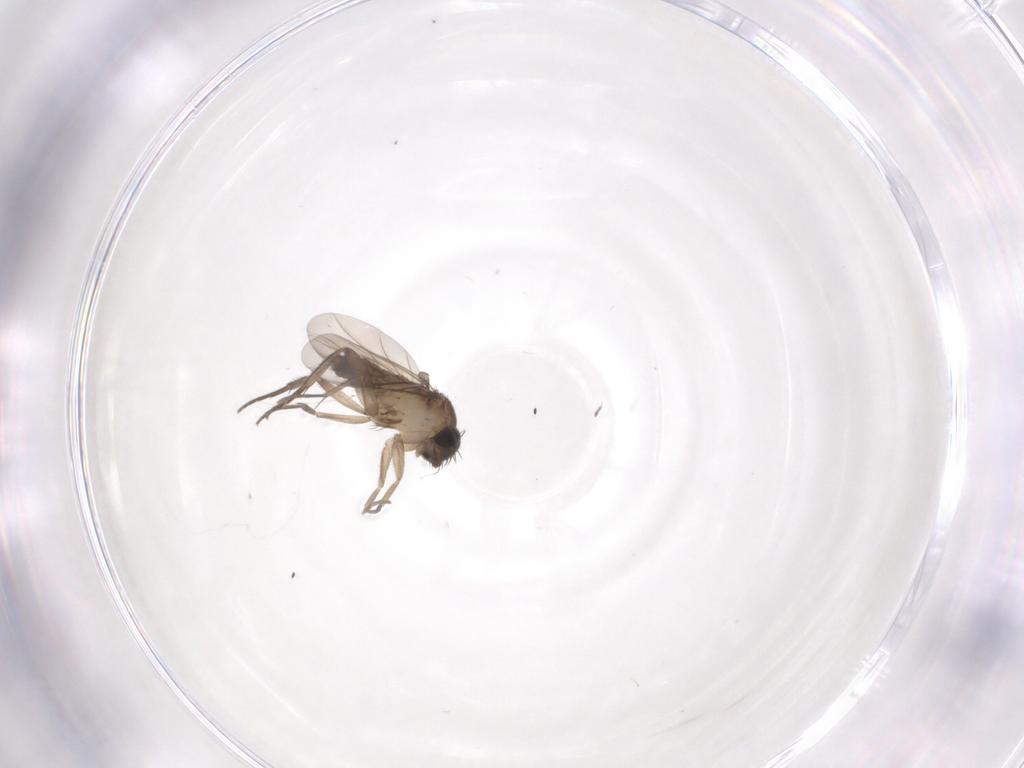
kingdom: Animalia
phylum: Arthropoda
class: Insecta
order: Diptera
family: Phoridae
